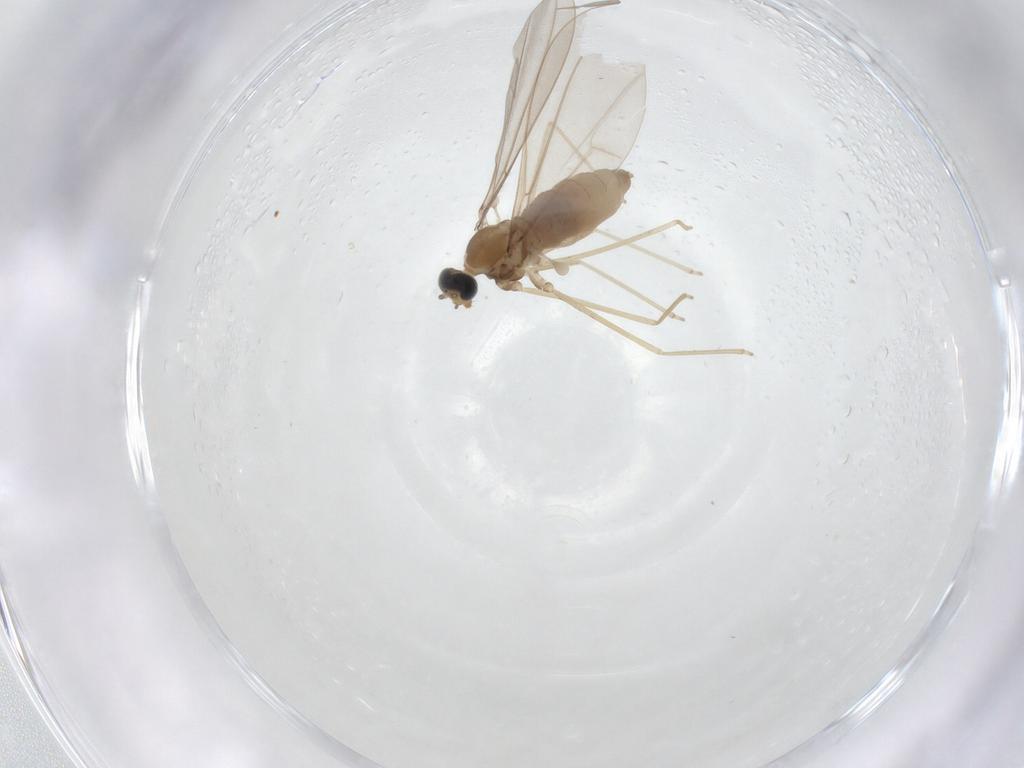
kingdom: Animalia
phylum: Arthropoda
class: Insecta
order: Diptera
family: Cecidomyiidae
